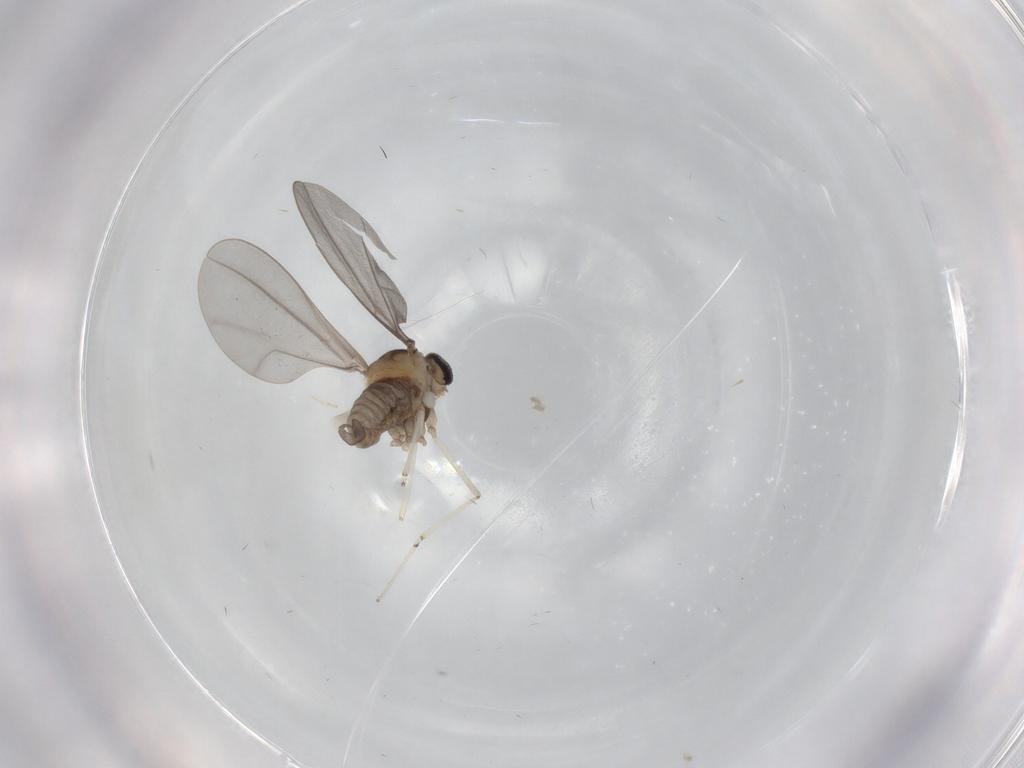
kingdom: Animalia
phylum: Arthropoda
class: Insecta
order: Diptera
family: Cecidomyiidae
